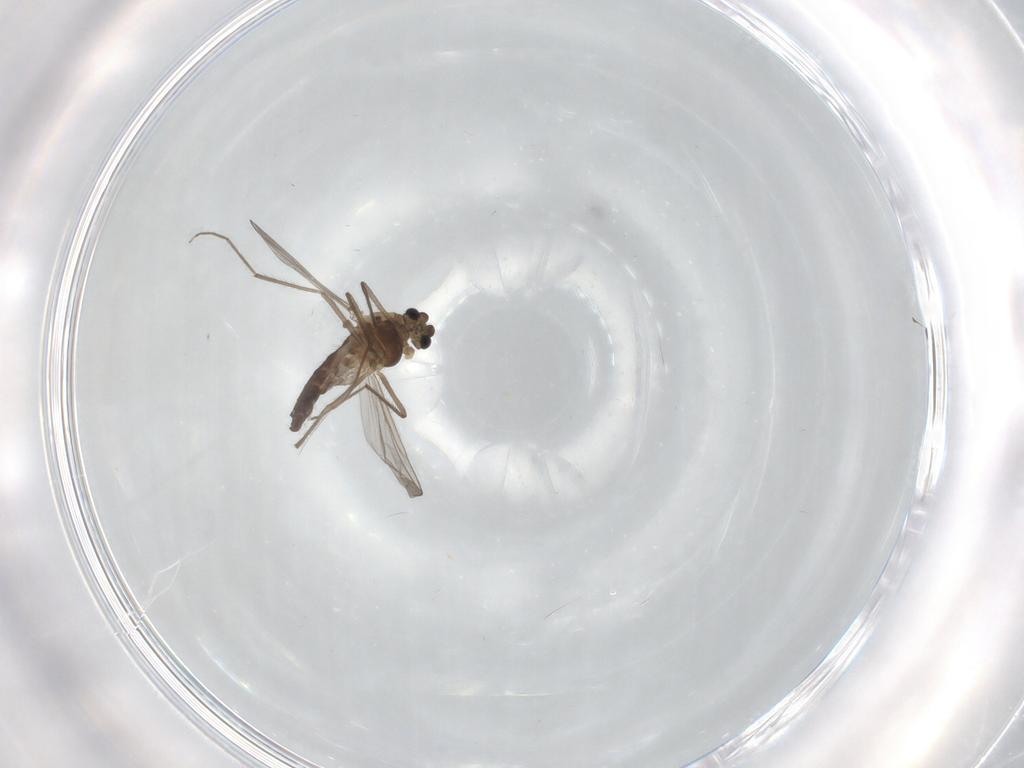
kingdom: Animalia
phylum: Arthropoda
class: Insecta
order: Diptera
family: Chironomidae
